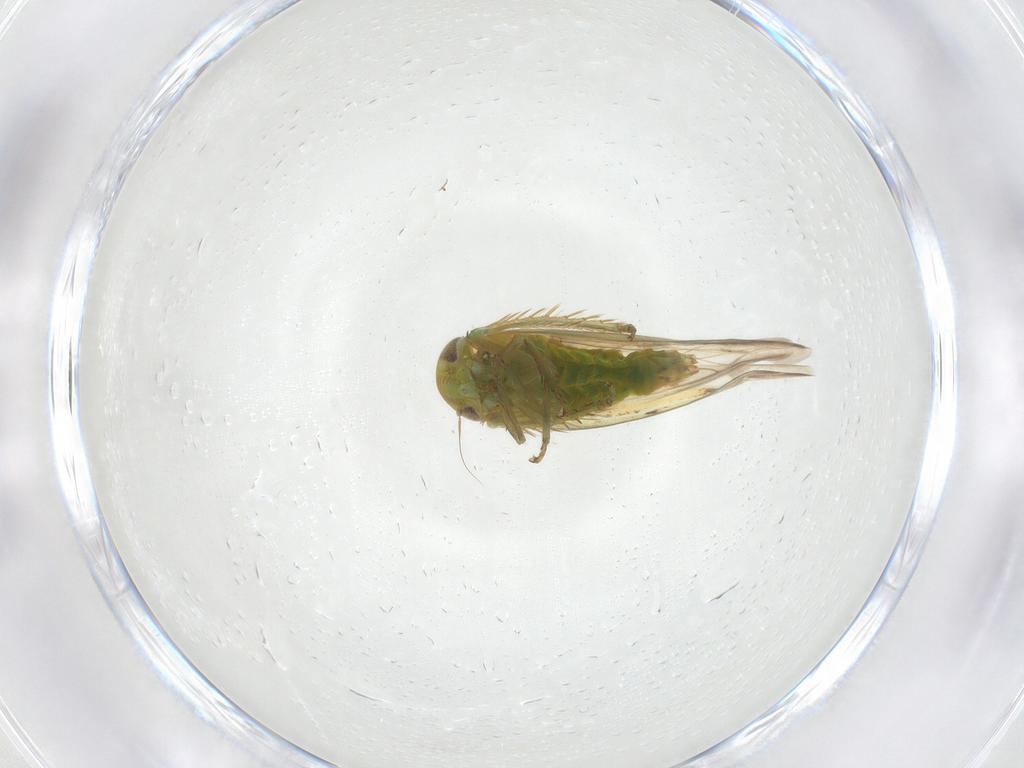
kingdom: Animalia
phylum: Arthropoda
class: Insecta
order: Hemiptera
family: Cicadellidae
